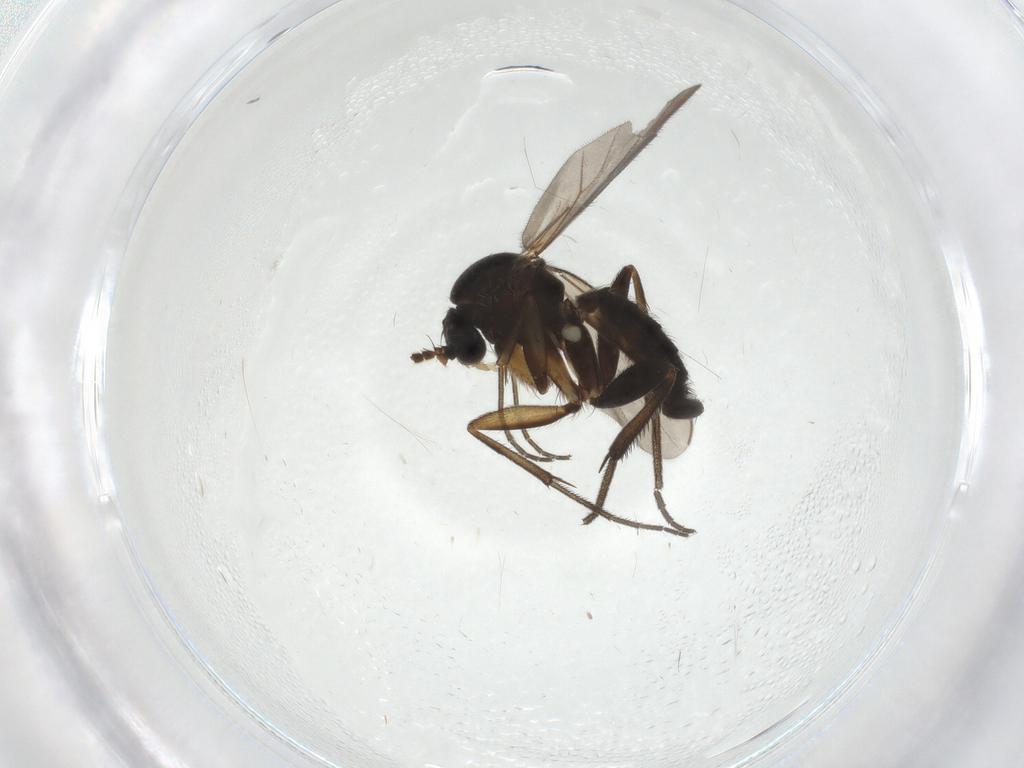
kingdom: Animalia
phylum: Arthropoda
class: Insecta
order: Diptera
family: Mycetophilidae
